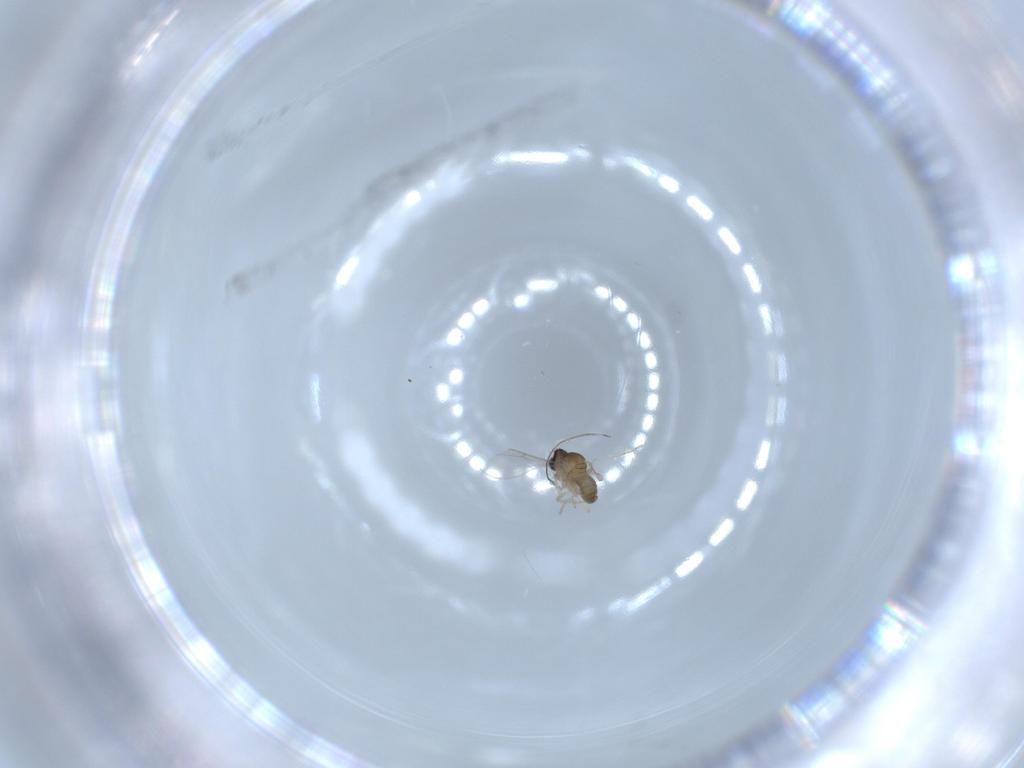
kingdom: Animalia
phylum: Arthropoda
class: Insecta
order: Diptera
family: Cecidomyiidae
